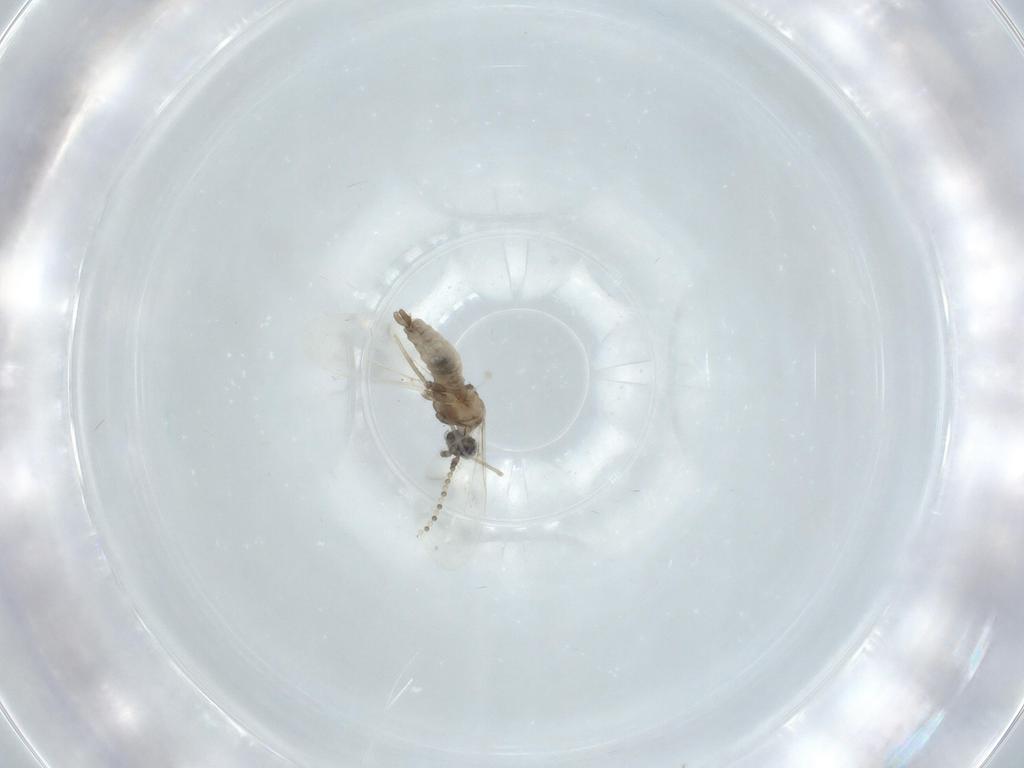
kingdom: Animalia
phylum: Arthropoda
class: Insecta
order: Diptera
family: Cecidomyiidae
